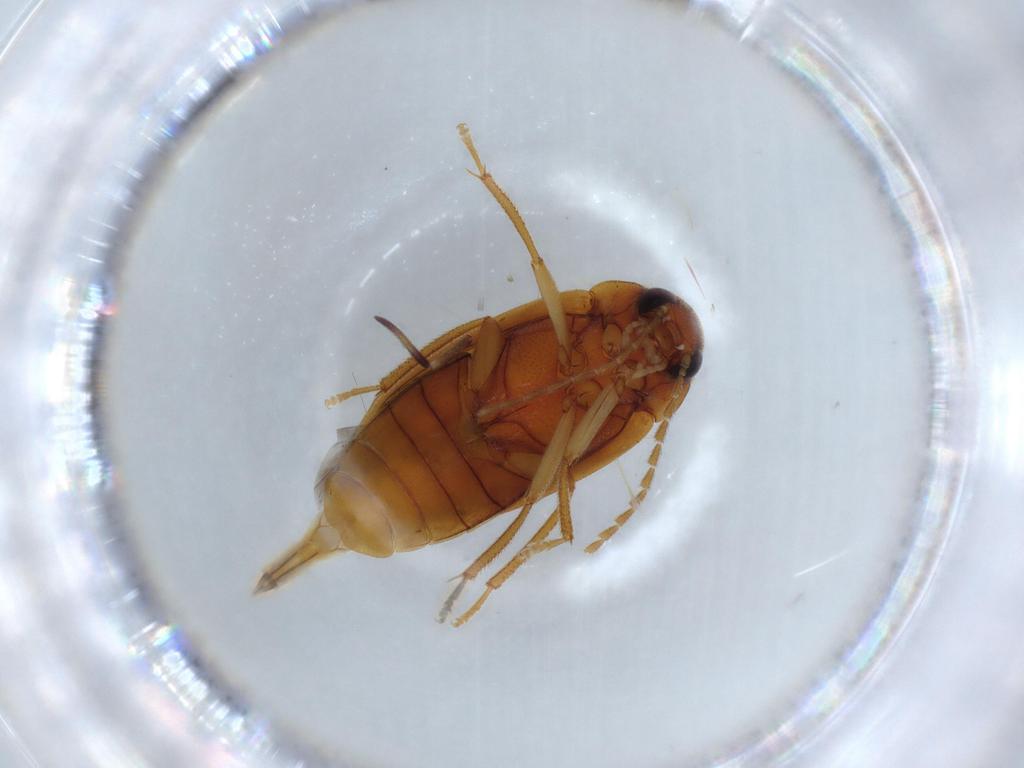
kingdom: Animalia
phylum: Arthropoda
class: Insecta
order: Coleoptera
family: Ptilodactylidae
